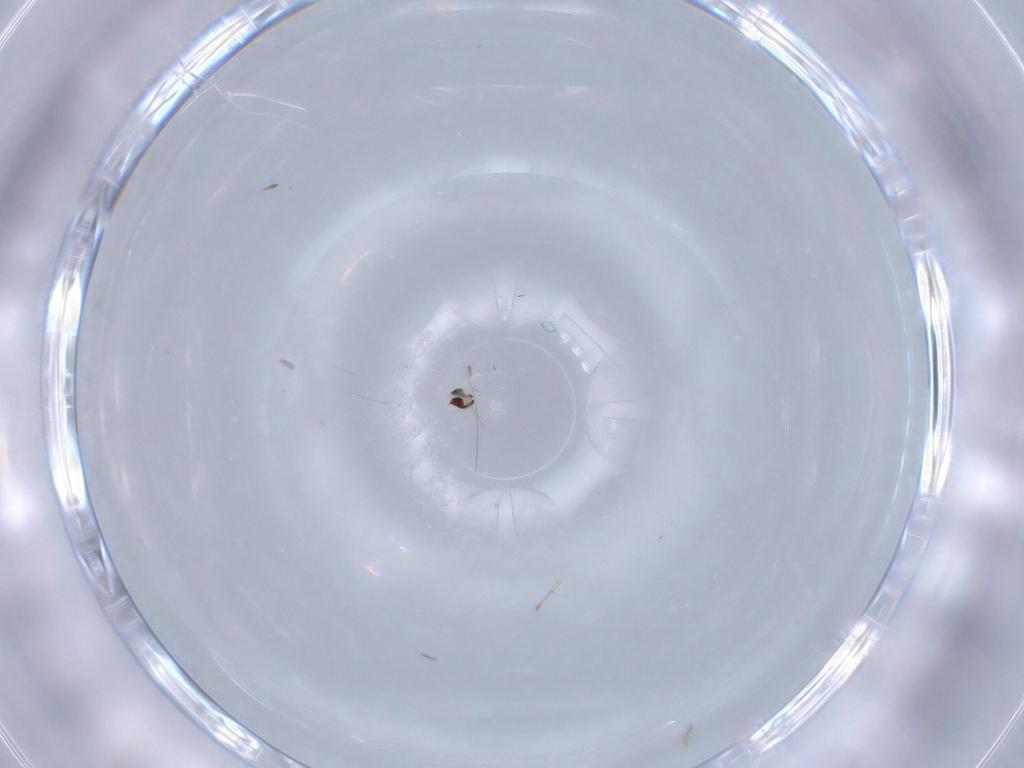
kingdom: Animalia
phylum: Arthropoda
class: Insecta
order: Diptera
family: Cecidomyiidae
